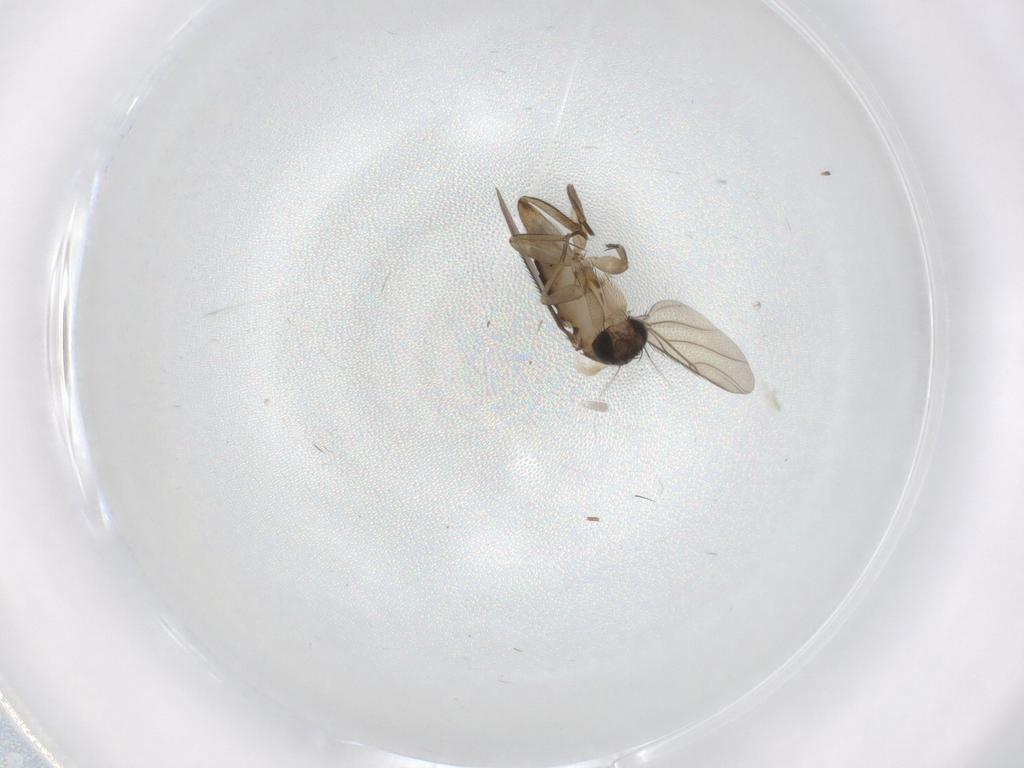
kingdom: Animalia
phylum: Arthropoda
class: Insecta
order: Diptera
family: Phoridae
